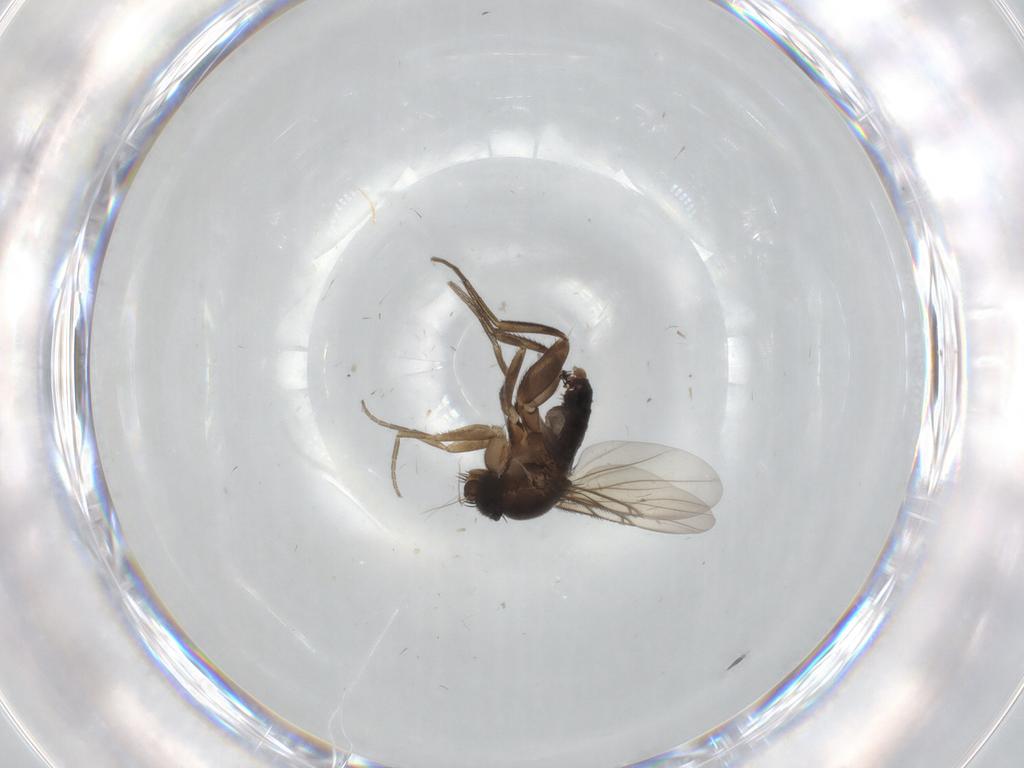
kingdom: Animalia
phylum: Arthropoda
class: Insecta
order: Diptera
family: Phoridae
